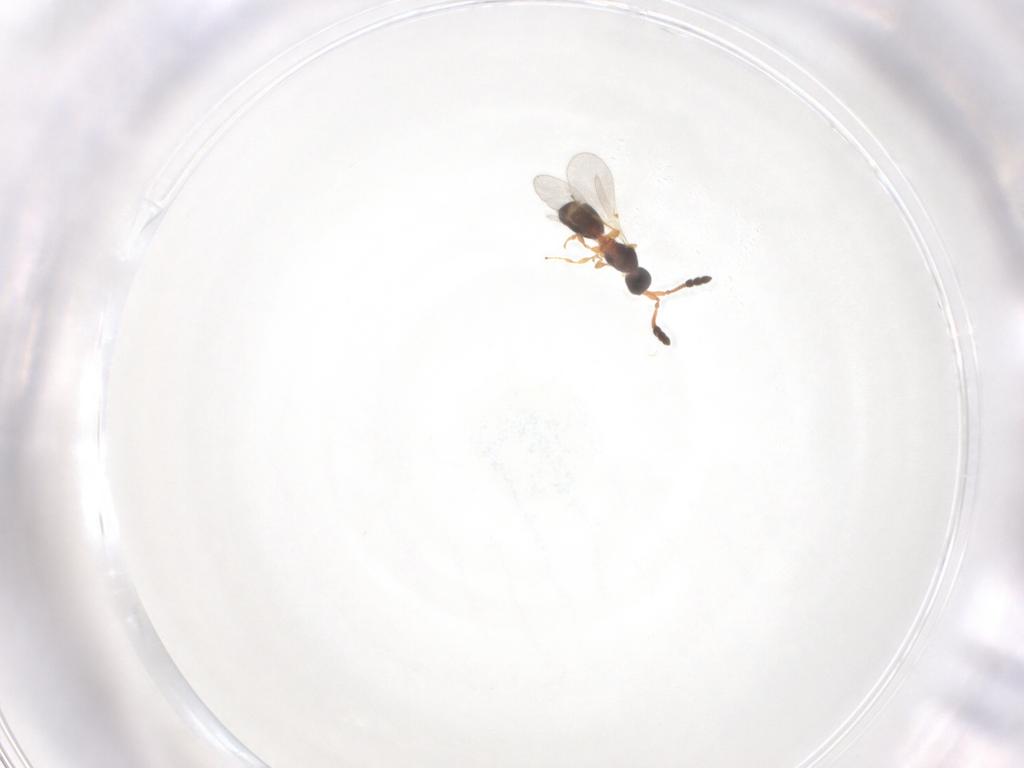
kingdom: Animalia
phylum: Arthropoda
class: Insecta
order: Hymenoptera
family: Diapriidae
